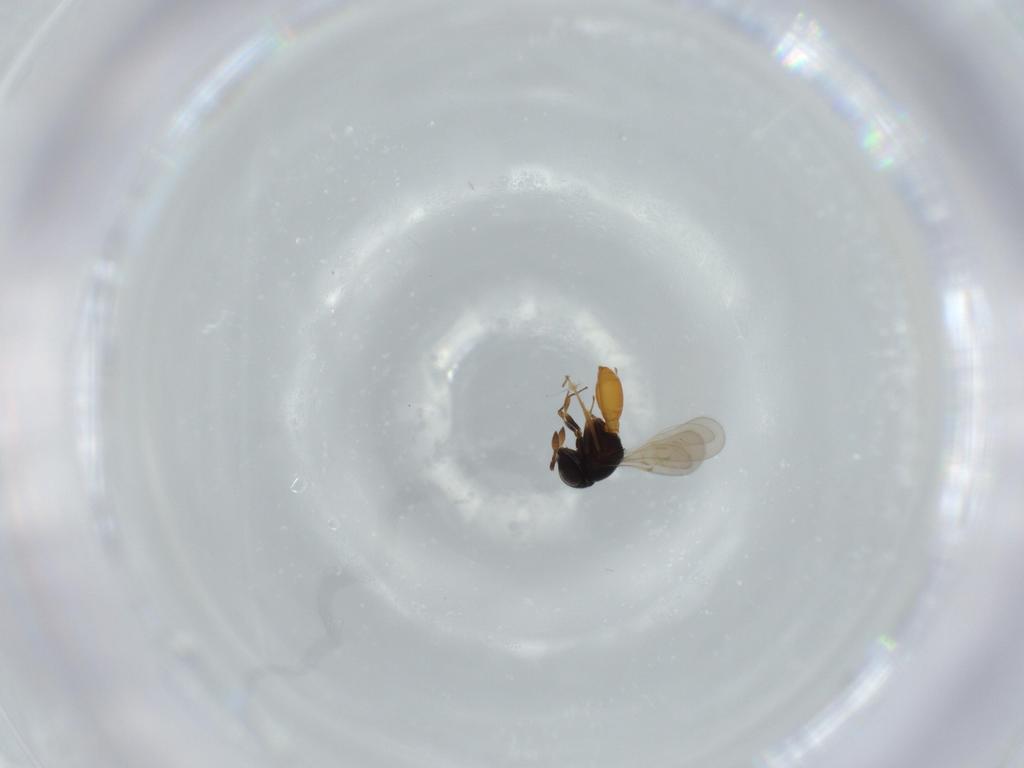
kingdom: Animalia
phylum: Arthropoda
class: Insecta
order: Hymenoptera
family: Scelionidae
